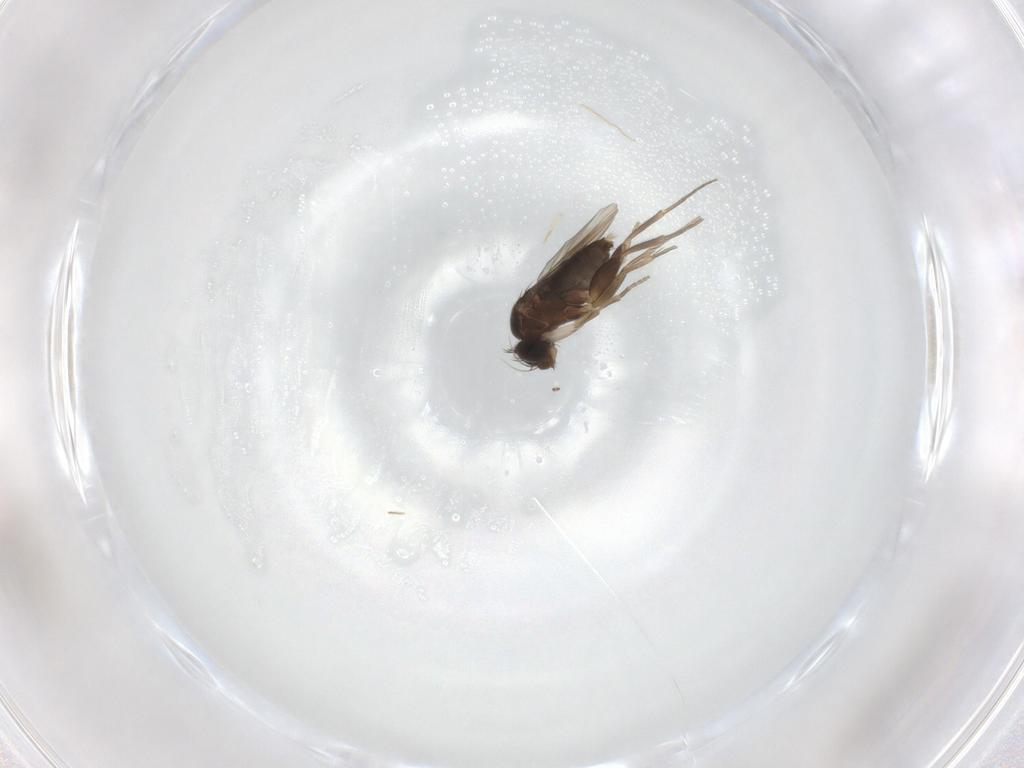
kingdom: Animalia
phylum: Arthropoda
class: Insecta
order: Diptera
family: Phoridae
